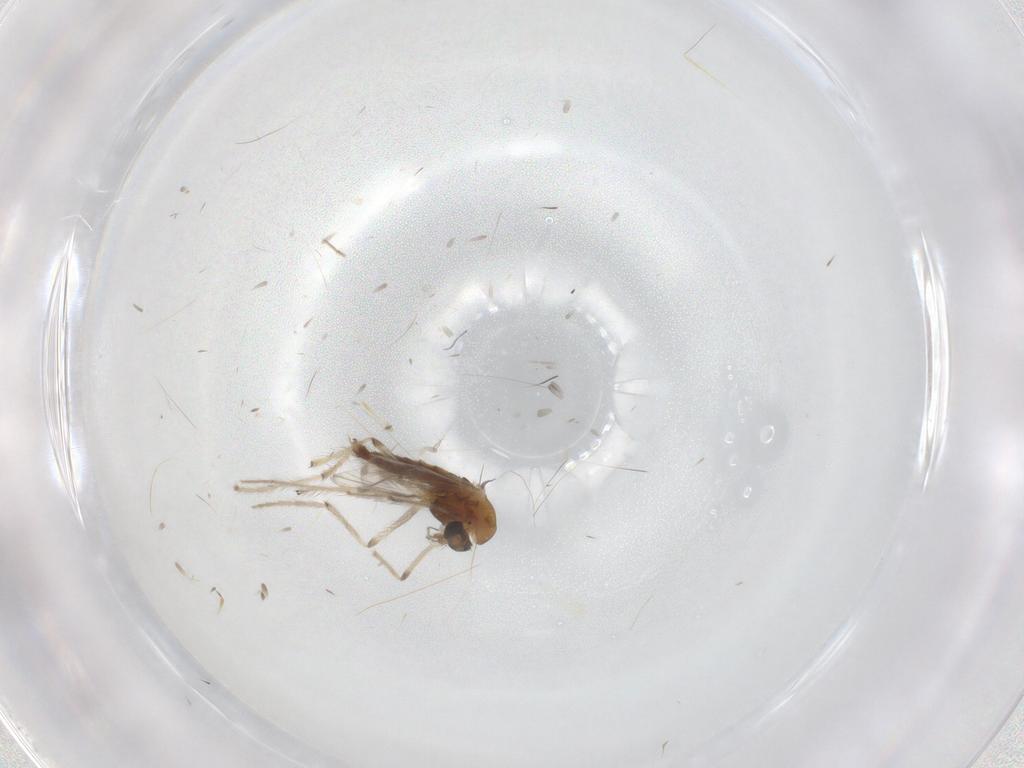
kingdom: Animalia
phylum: Arthropoda
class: Insecta
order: Diptera
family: Chironomidae
